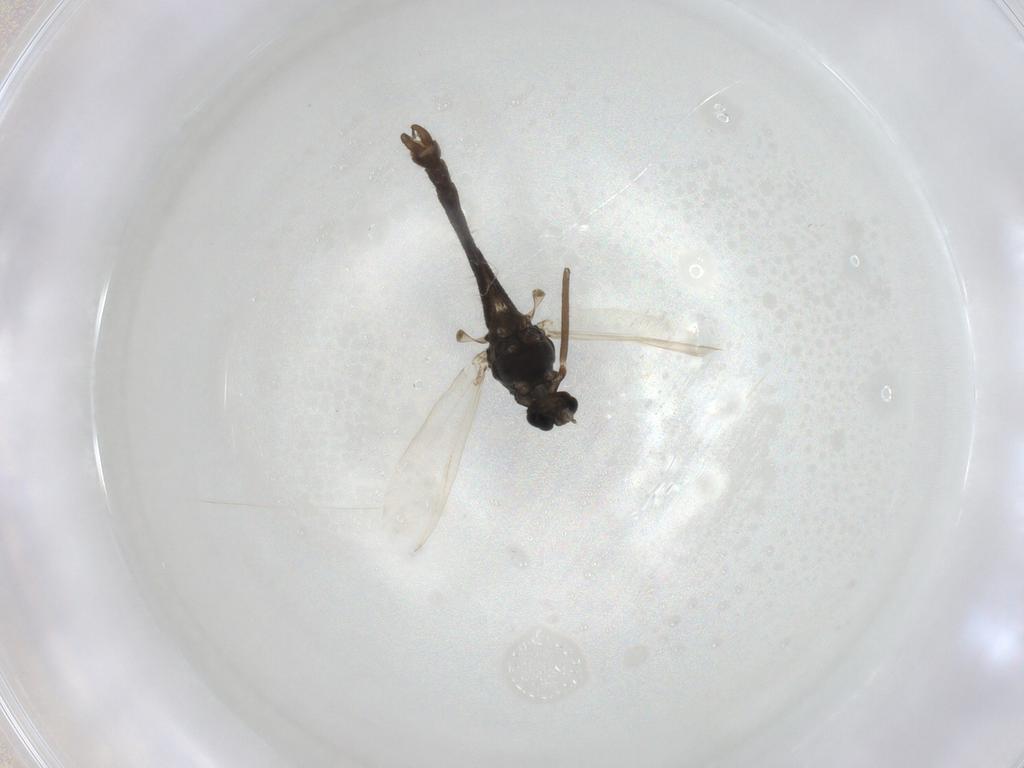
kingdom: Animalia
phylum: Arthropoda
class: Insecta
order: Diptera
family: Chironomidae
